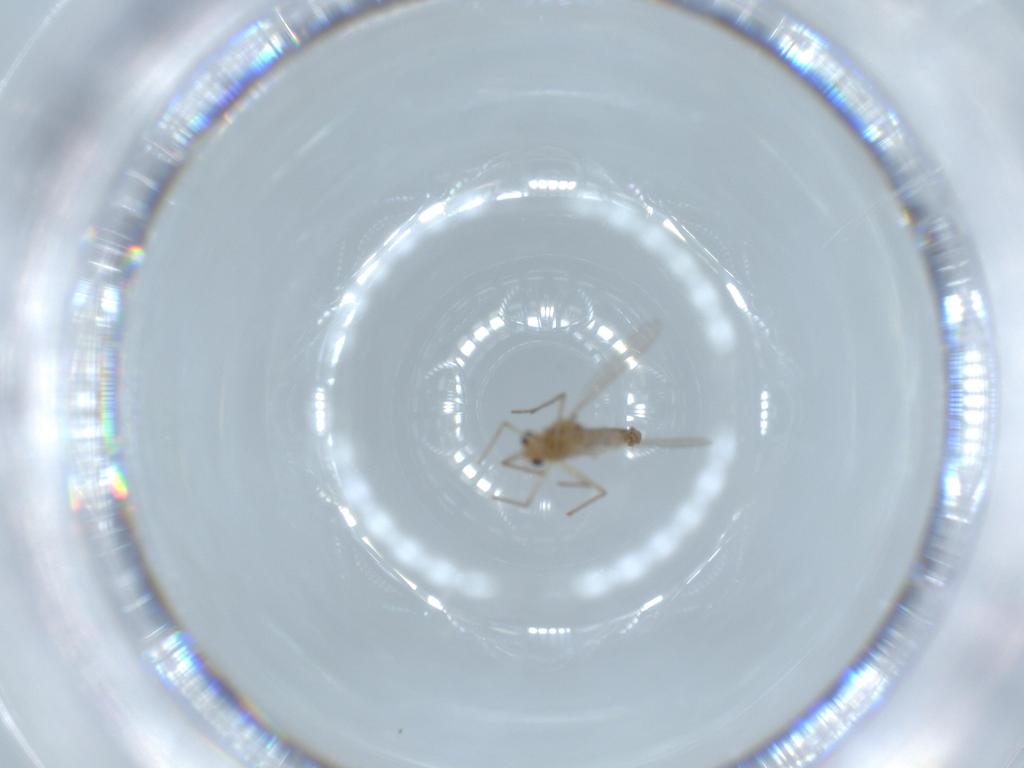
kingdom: Animalia
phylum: Arthropoda
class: Insecta
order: Diptera
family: Chironomidae
